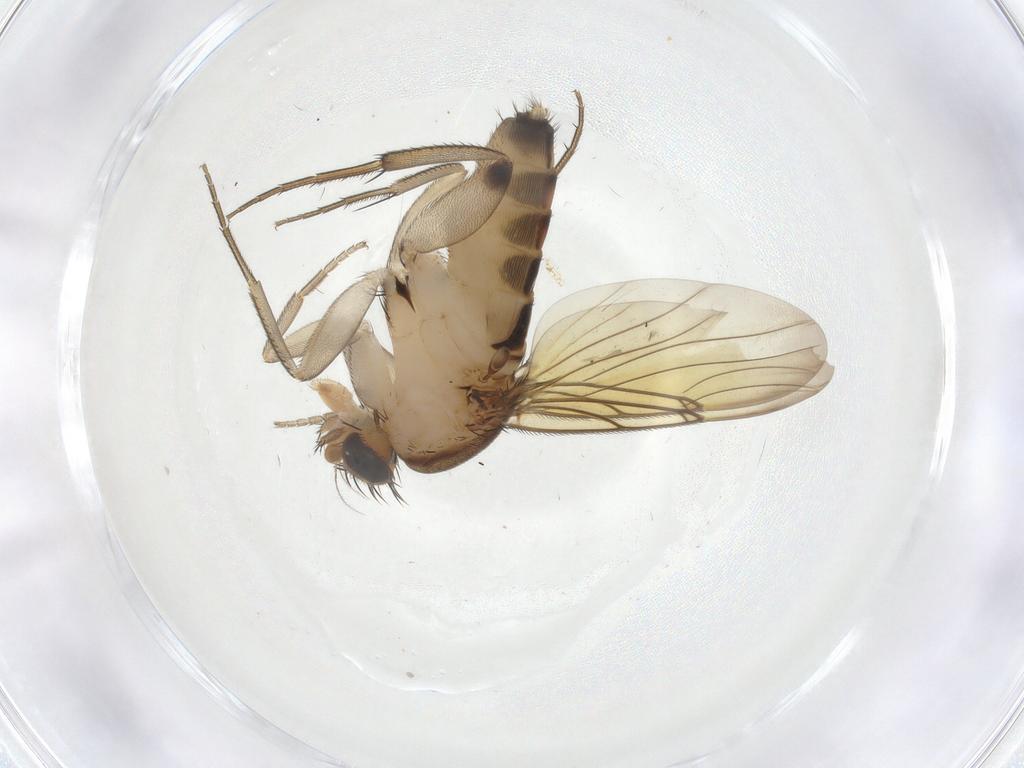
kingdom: Animalia
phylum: Arthropoda
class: Insecta
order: Diptera
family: Phoridae
